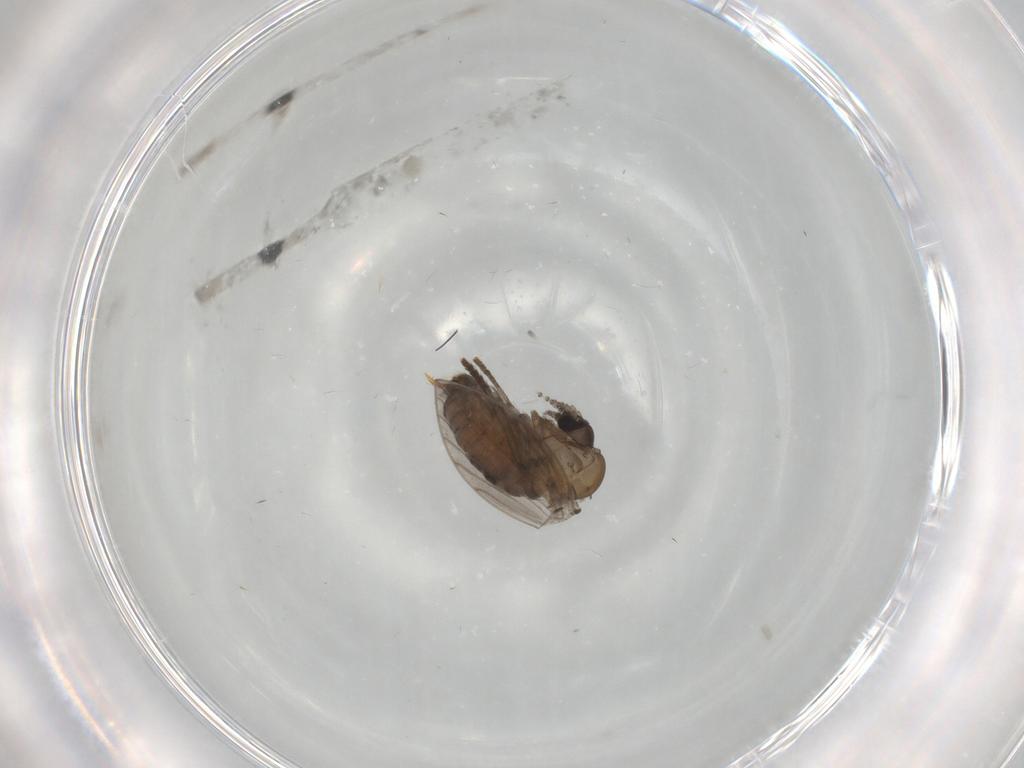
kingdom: Animalia
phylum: Arthropoda
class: Insecta
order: Diptera
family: Psychodidae
